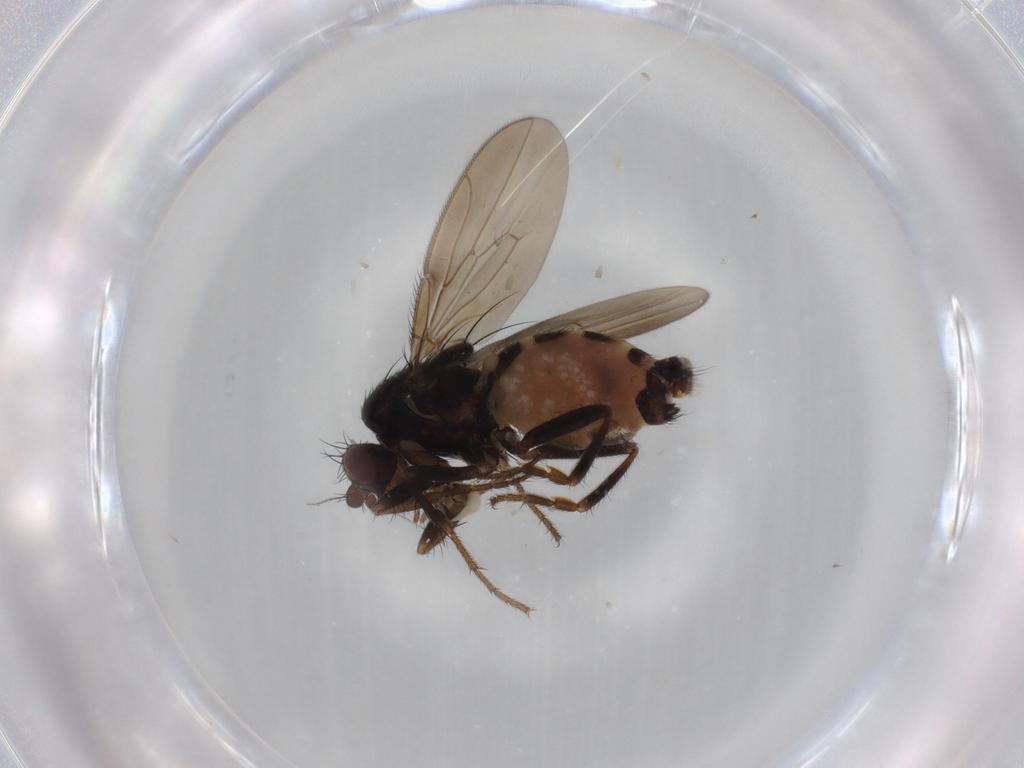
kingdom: Animalia
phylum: Arthropoda
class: Insecta
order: Diptera
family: Sphaeroceridae
